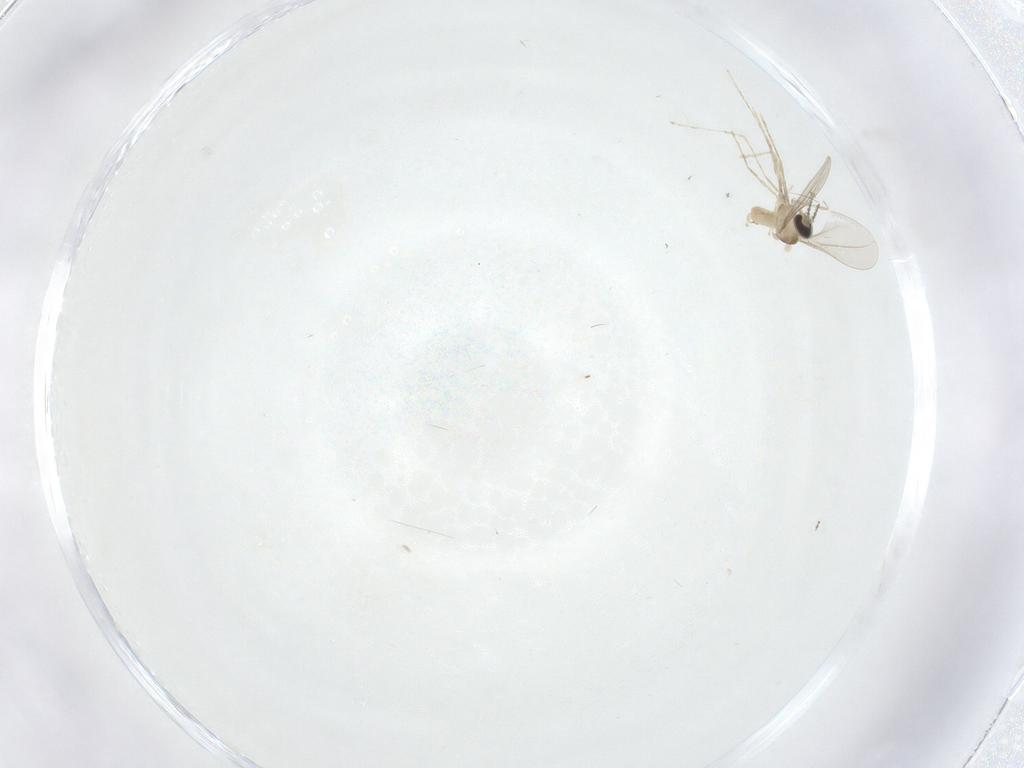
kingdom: Animalia
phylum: Arthropoda
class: Insecta
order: Diptera
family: Cecidomyiidae
